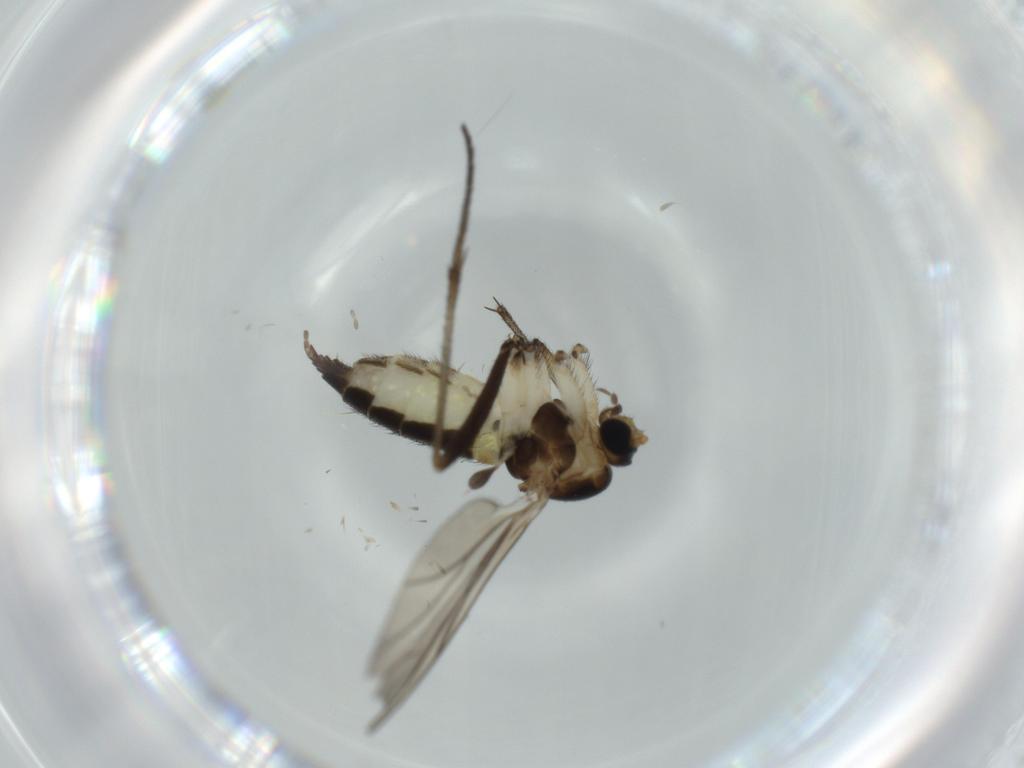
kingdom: Animalia
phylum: Arthropoda
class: Insecta
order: Diptera
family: Sciaridae
